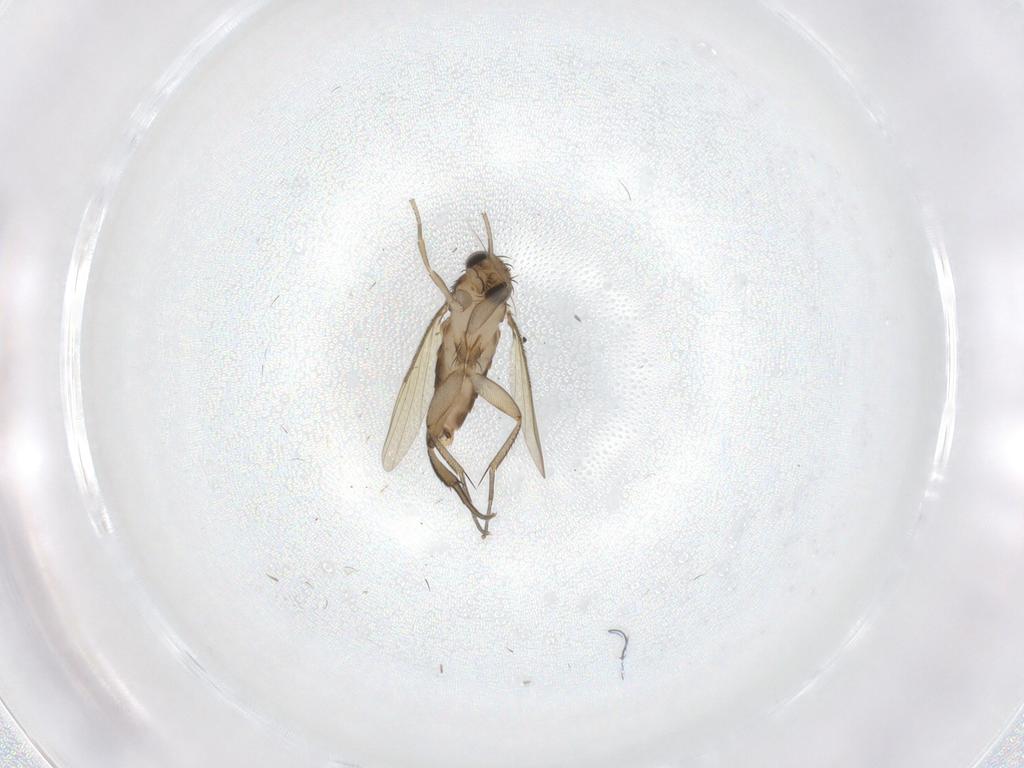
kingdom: Animalia
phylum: Arthropoda
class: Insecta
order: Diptera
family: Phoridae
